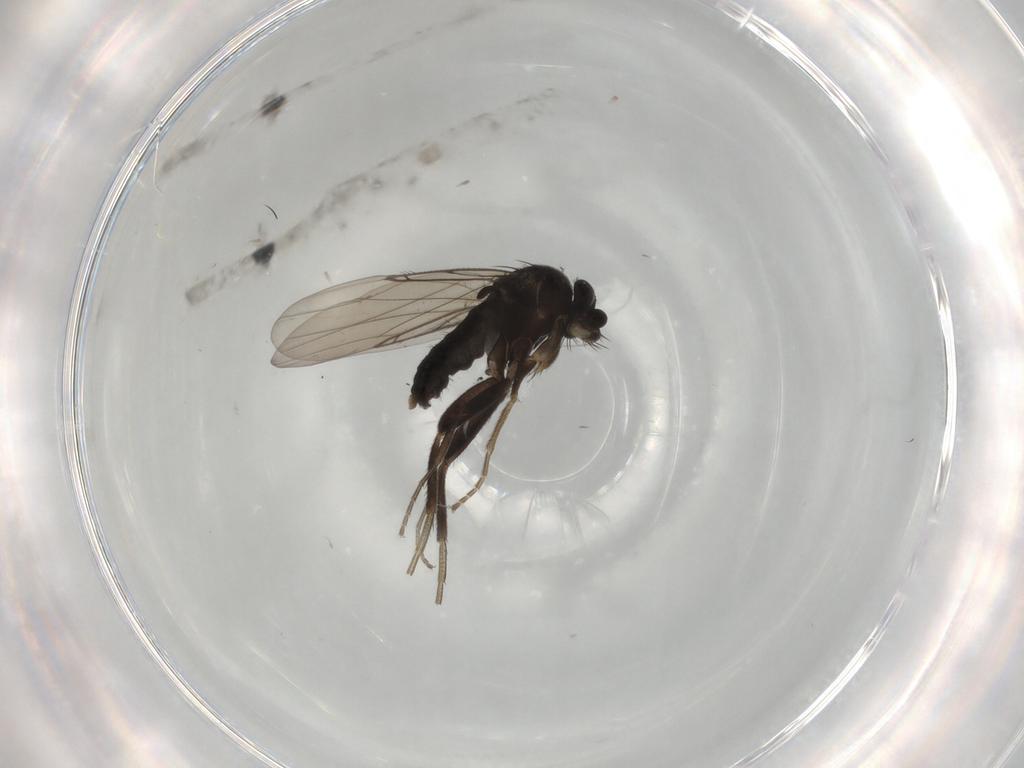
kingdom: Animalia
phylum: Arthropoda
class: Insecta
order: Diptera
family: Phoridae
